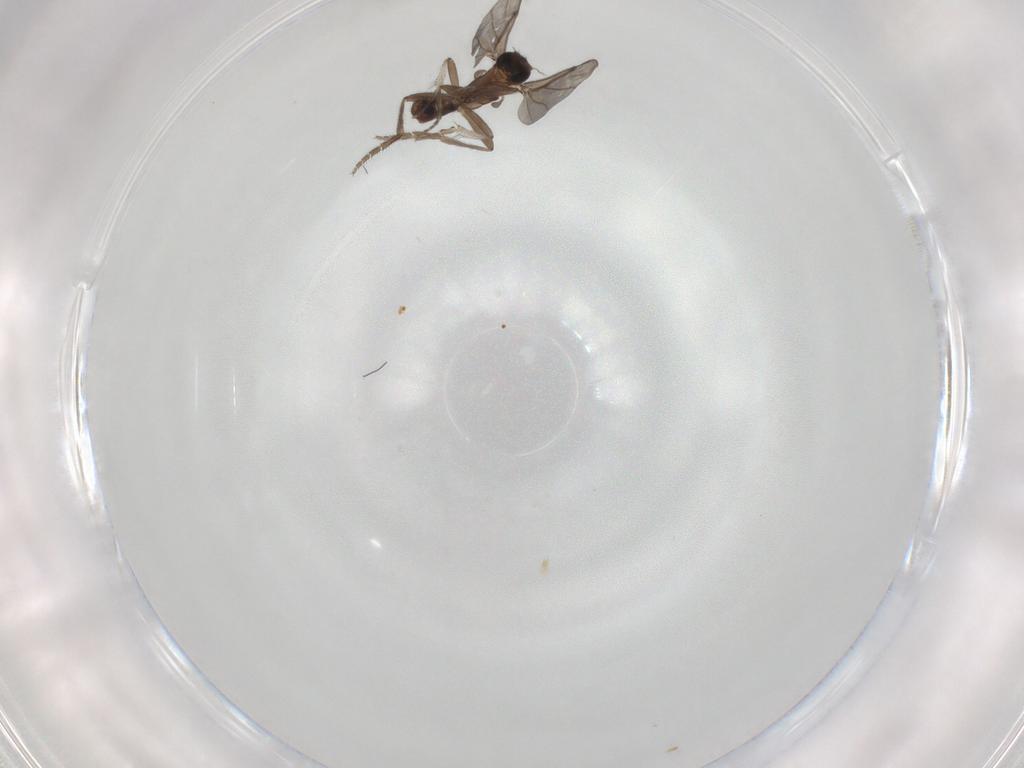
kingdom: Animalia
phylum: Arthropoda
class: Insecta
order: Diptera
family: Phoridae
